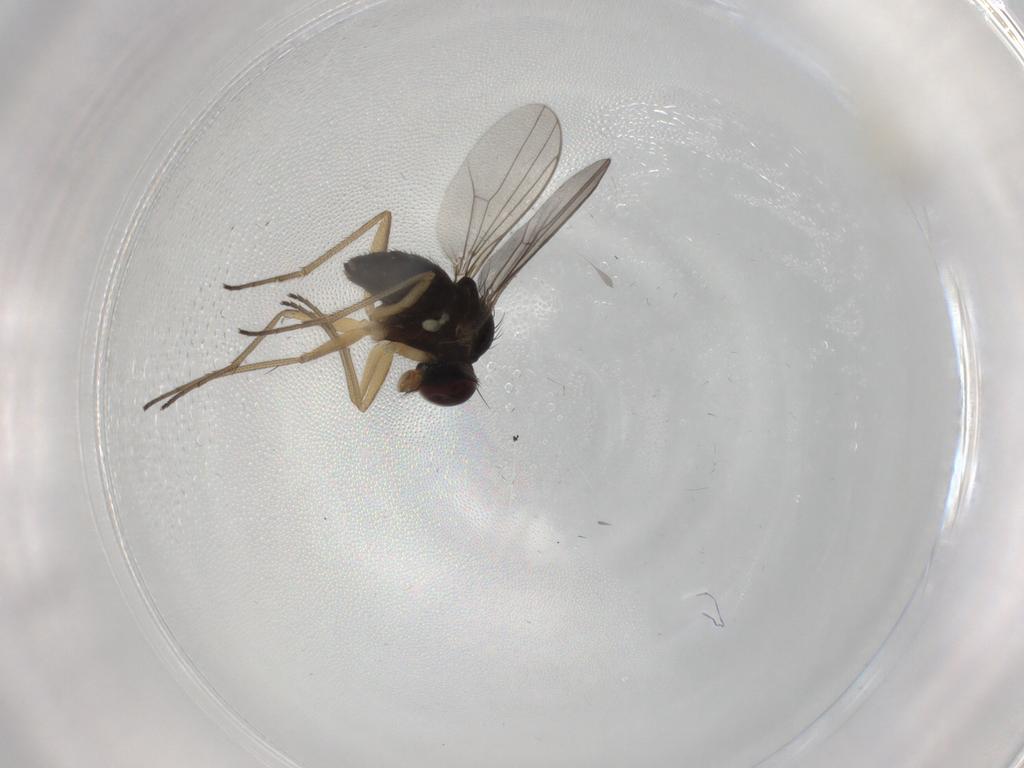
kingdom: Animalia
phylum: Arthropoda
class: Insecta
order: Diptera
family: Dolichopodidae
